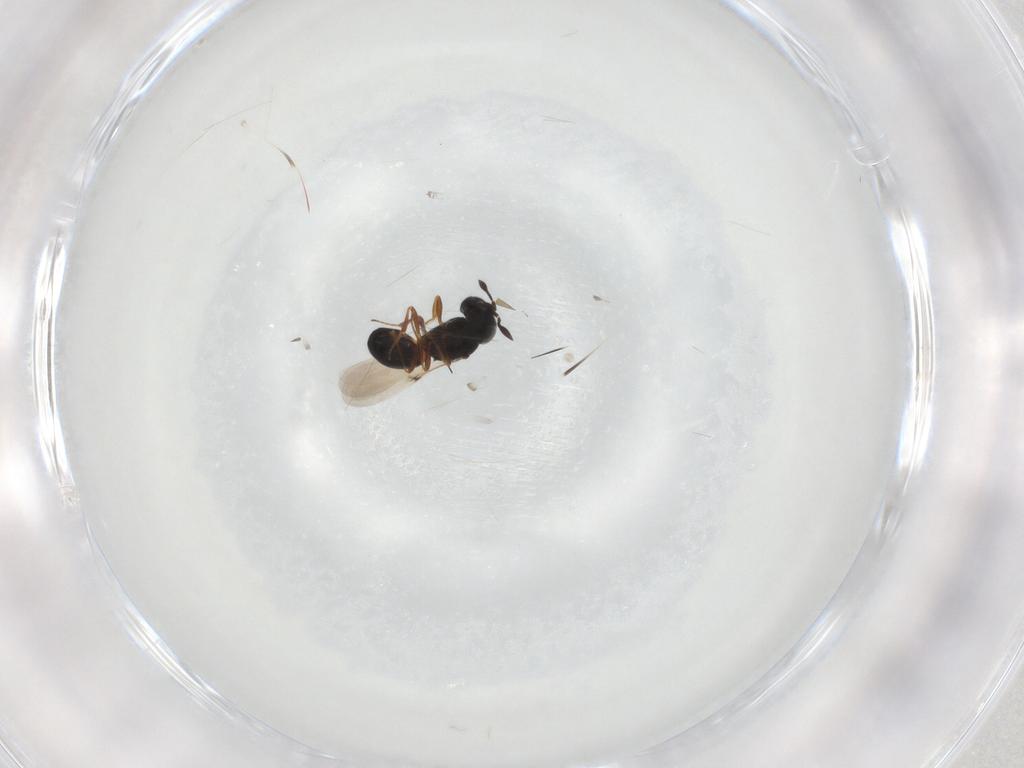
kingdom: Animalia
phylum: Arthropoda
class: Insecta
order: Hymenoptera
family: Scelionidae
